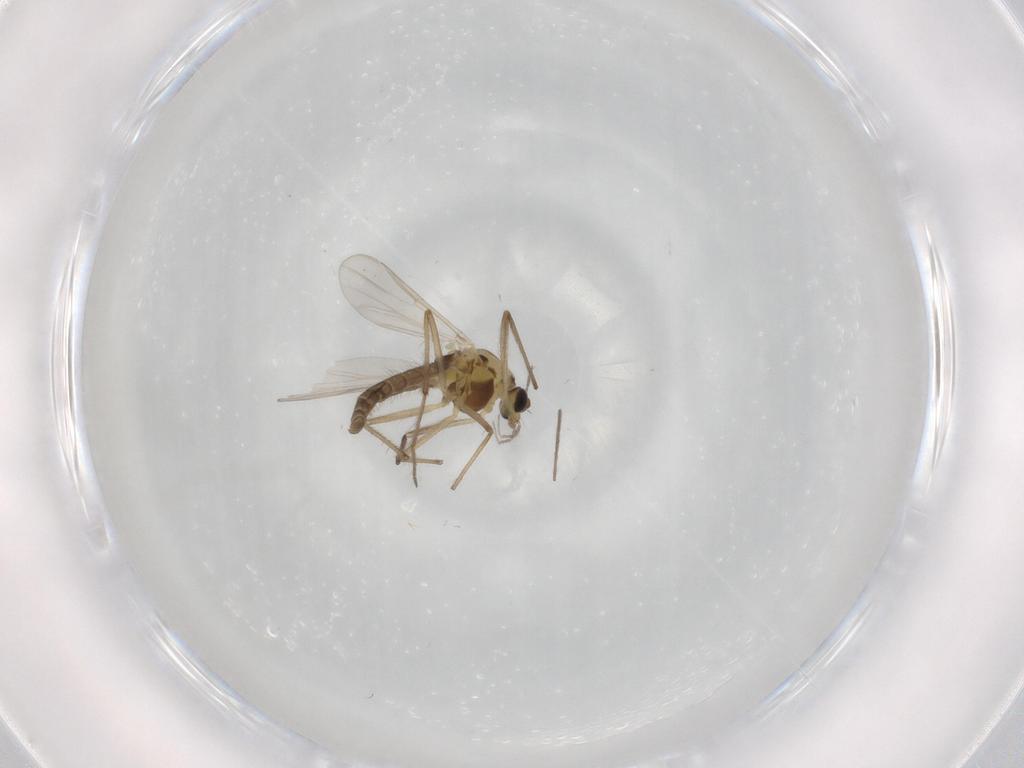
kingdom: Animalia
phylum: Arthropoda
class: Insecta
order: Diptera
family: Chironomidae
